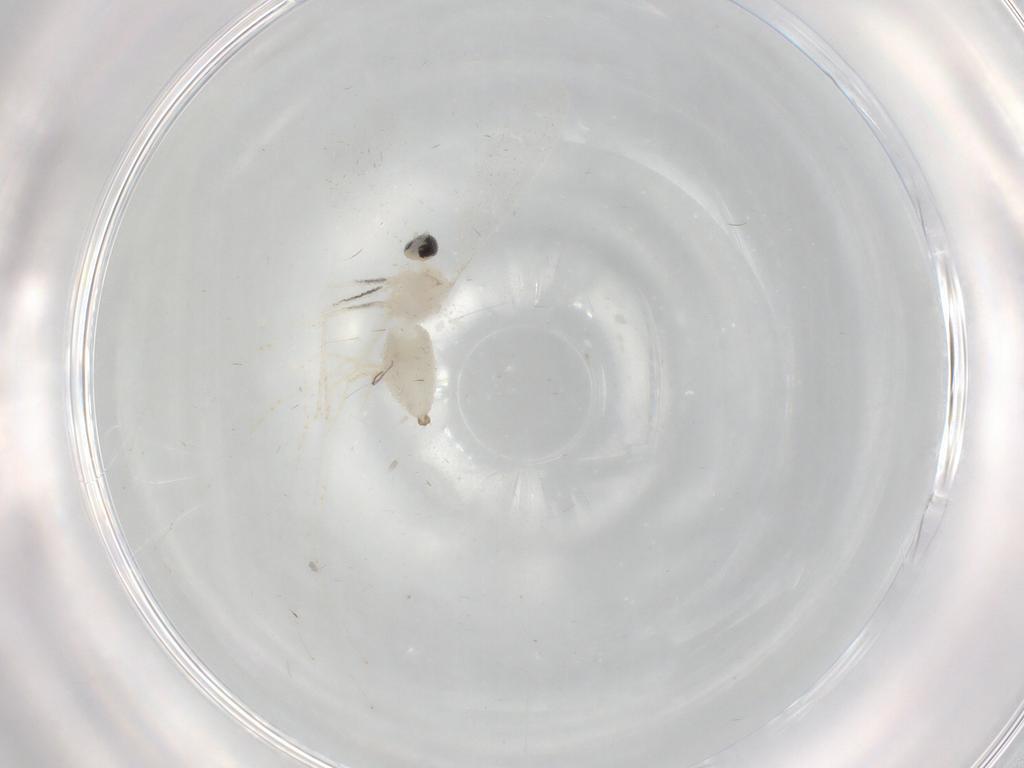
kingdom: Animalia
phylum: Arthropoda
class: Insecta
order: Diptera
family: Cecidomyiidae
